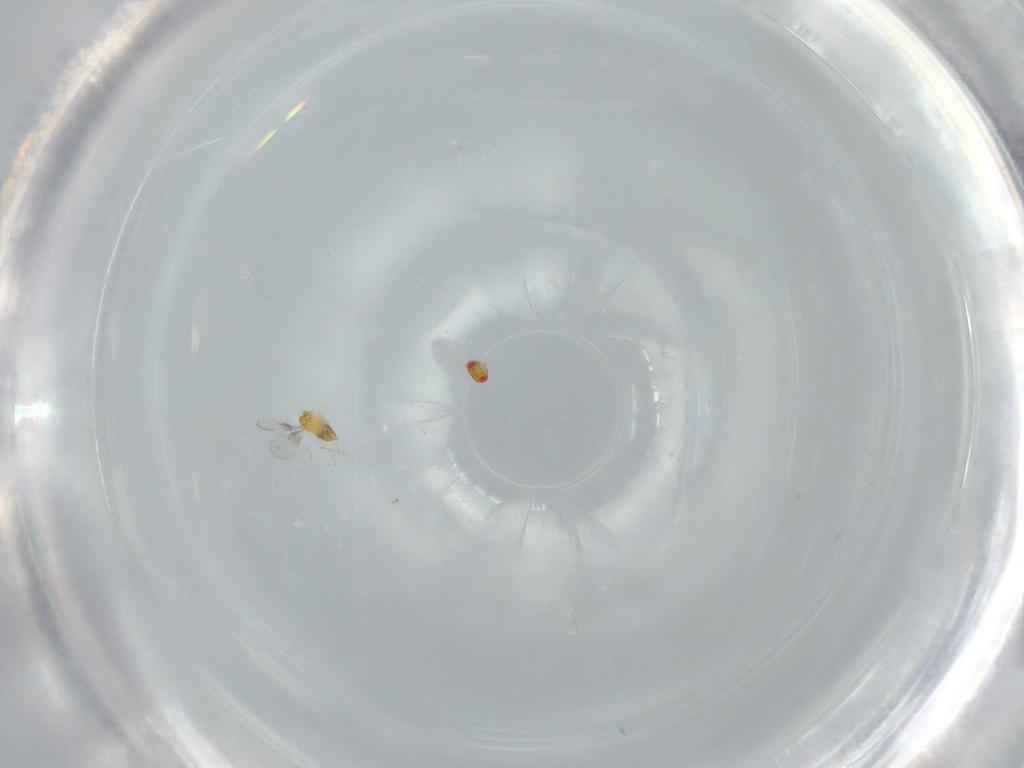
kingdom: Animalia
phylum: Arthropoda
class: Insecta
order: Hymenoptera
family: Trichogrammatidae
